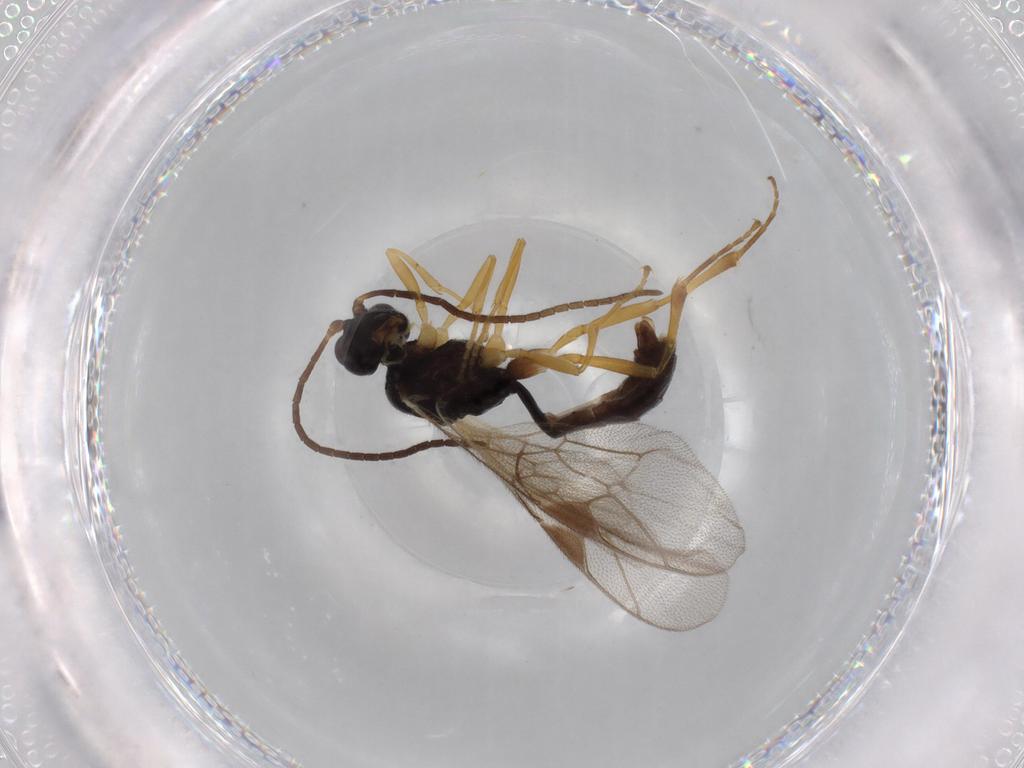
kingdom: Animalia
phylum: Arthropoda
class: Insecta
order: Hymenoptera
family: Ichneumonidae
